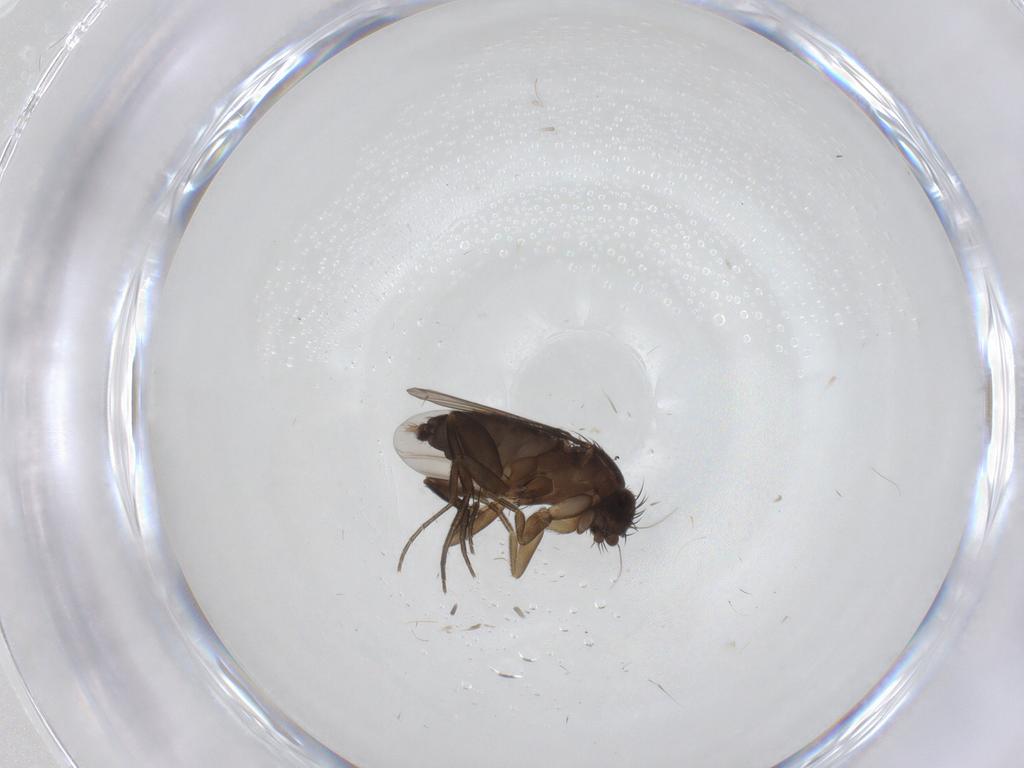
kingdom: Animalia
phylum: Arthropoda
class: Insecta
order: Diptera
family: Phoridae
